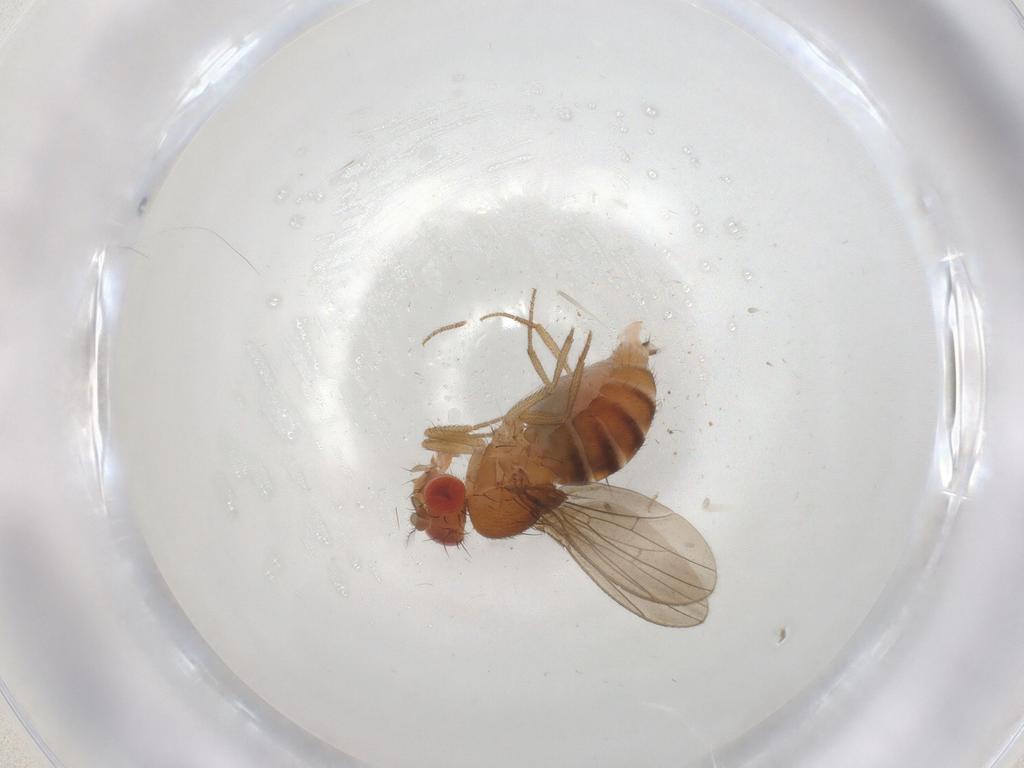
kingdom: Animalia
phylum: Arthropoda
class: Insecta
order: Diptera
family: Drosophilidae
